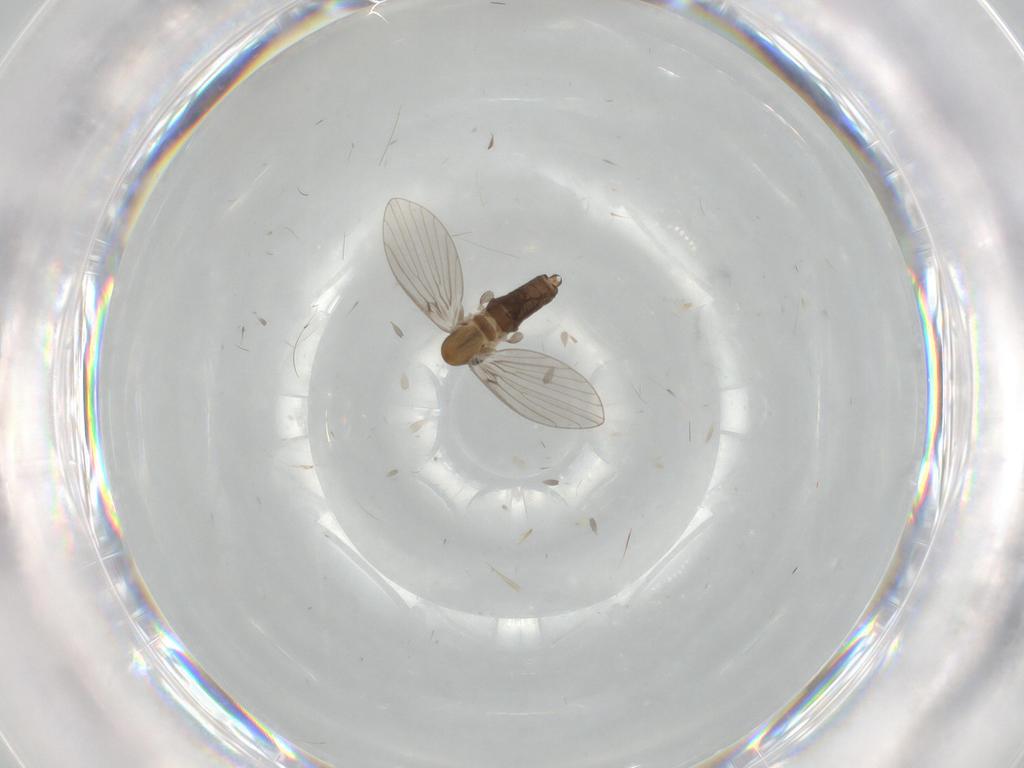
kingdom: Animalia
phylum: Arthropoda
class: Insecta
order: Diptera
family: Psychodidae
